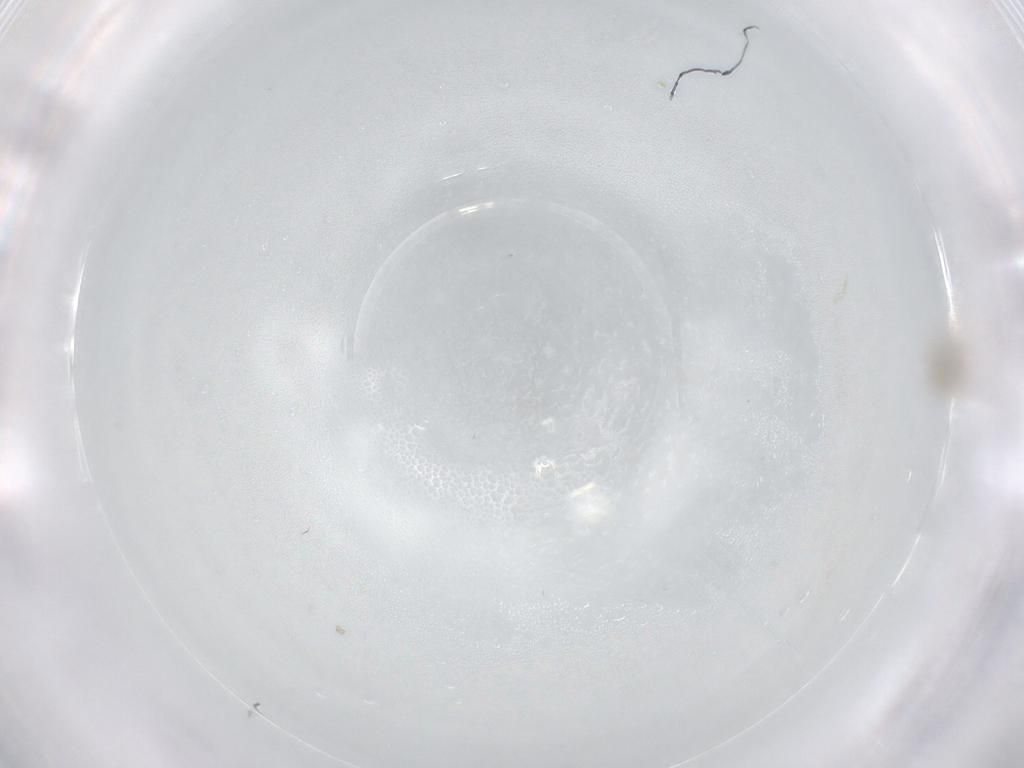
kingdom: Animalia
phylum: Arthropoda
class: Insecta
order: Diptera
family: Limoniidae
